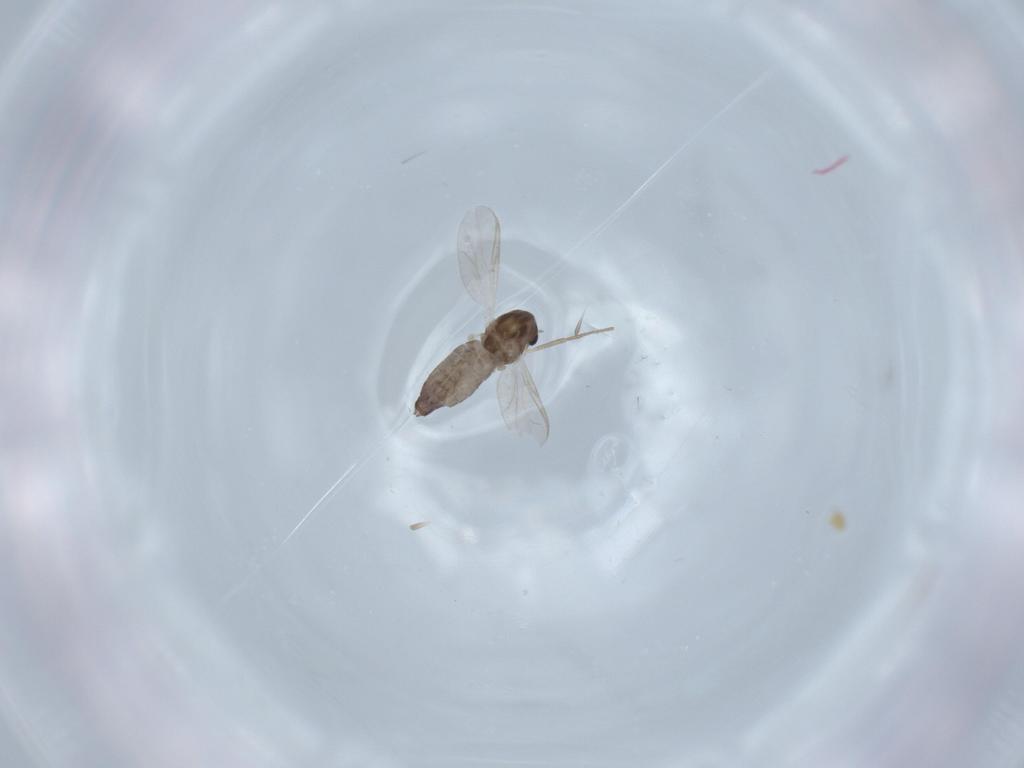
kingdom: Animalia
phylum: Arthropoda
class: Insecta
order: Diptera
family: Chironomidae
